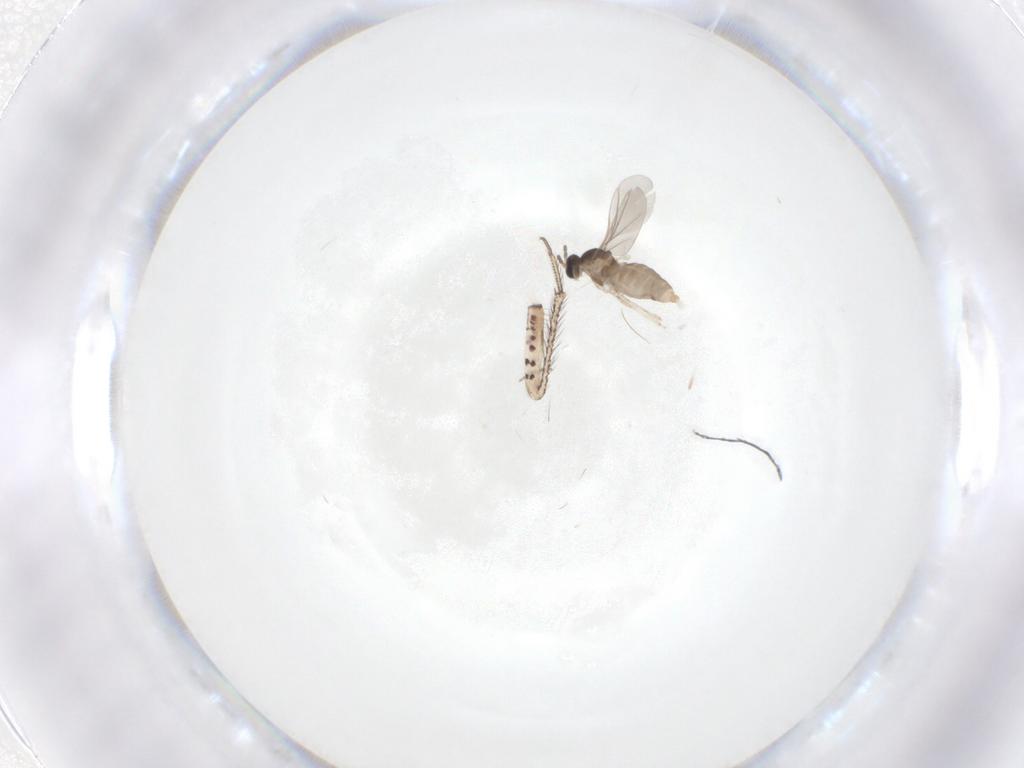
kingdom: Animalia
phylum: Arthropoda
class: Insecta
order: Diptera
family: Cecidomyiidae
